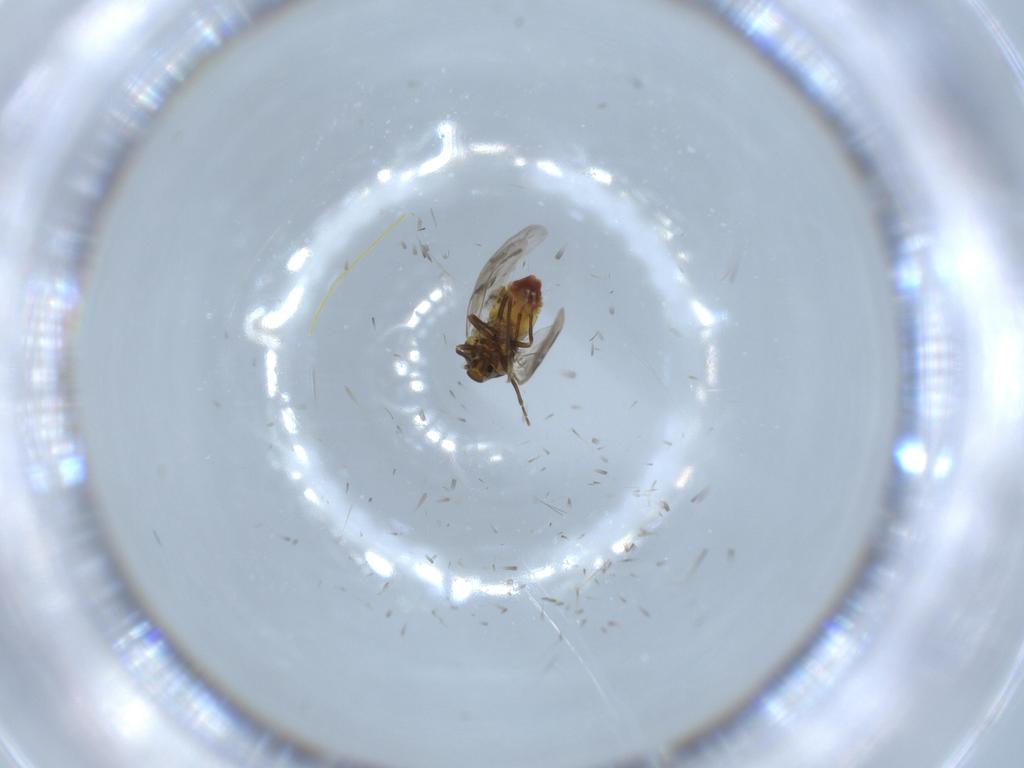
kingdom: Animalia
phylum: Arthropoda
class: Insecta
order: Hemiptera
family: Aleyrodidae
